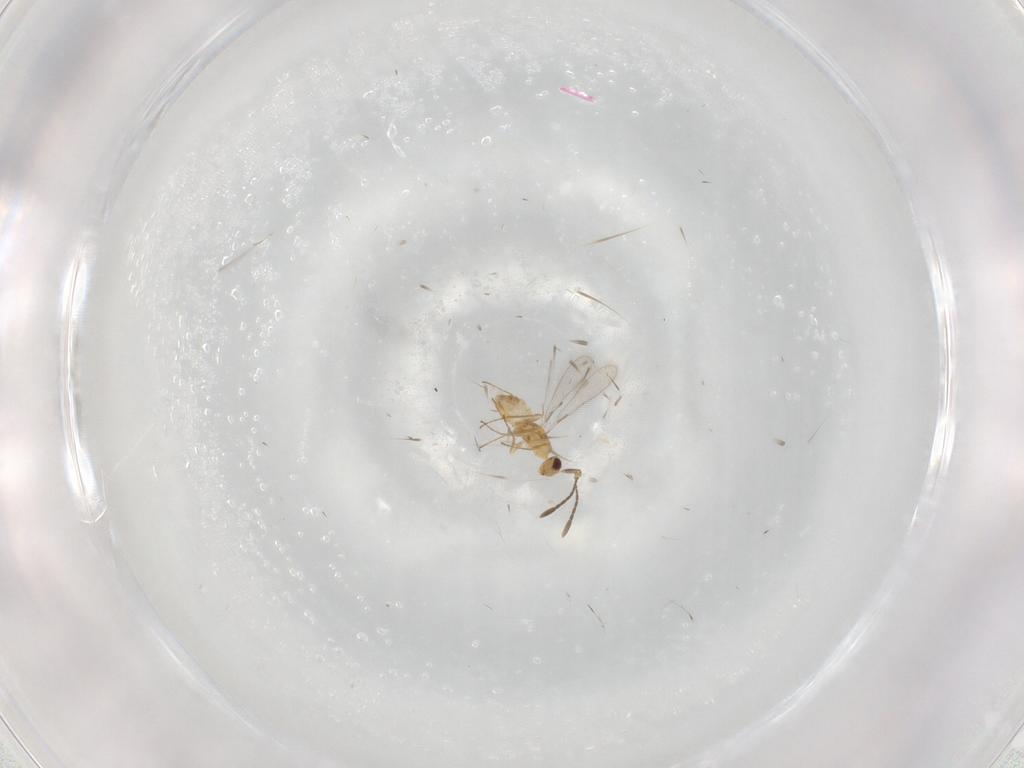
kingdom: Animalia
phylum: Arthropoda
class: Insecta
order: Hymenoptera
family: Mymaridae
